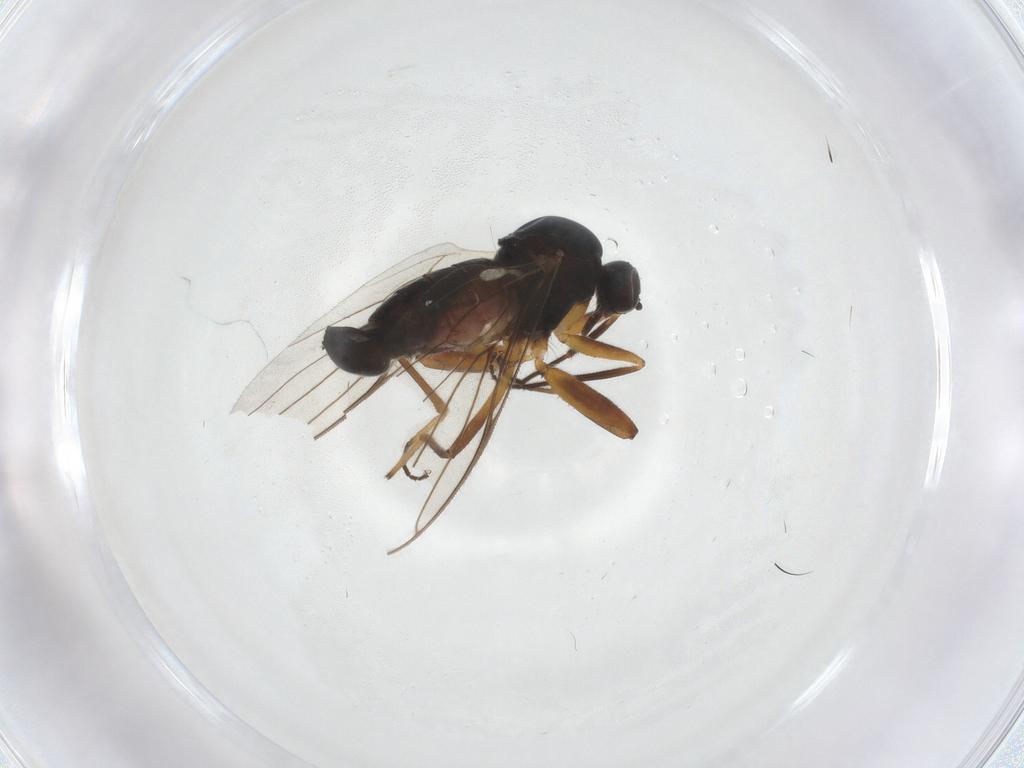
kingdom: Animalia
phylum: Arthropoda
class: Insecta
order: Diptera
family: Hybotidae
